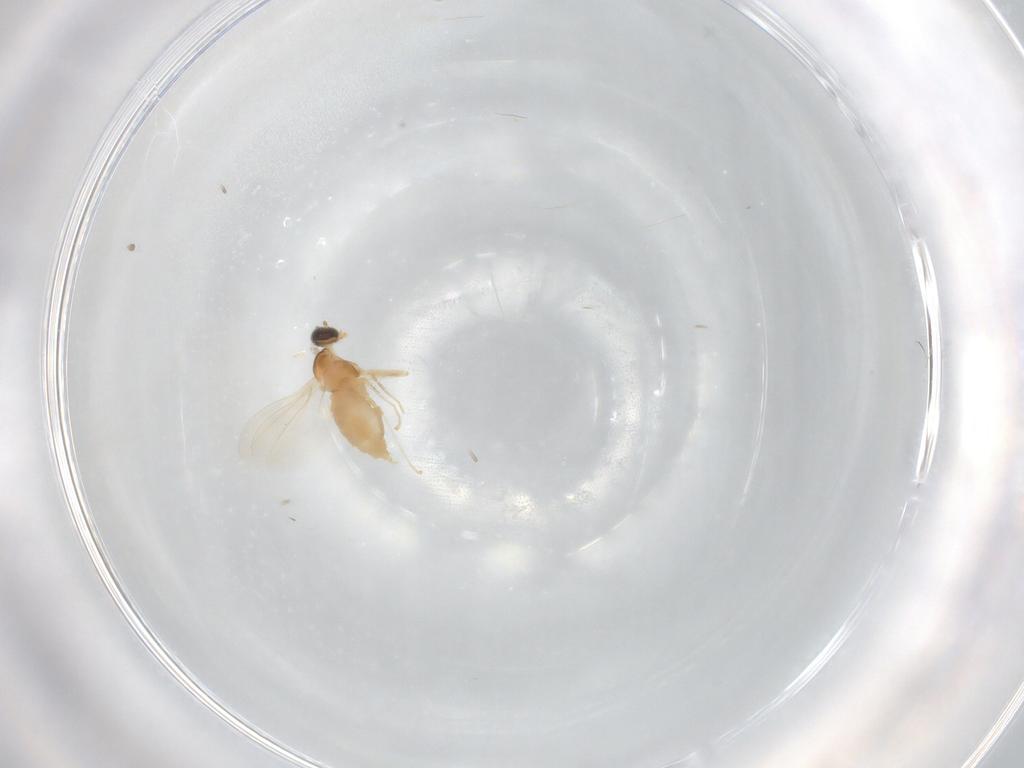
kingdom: Animalia
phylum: Arthropoda
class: Insecta
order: Diptera
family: Cecidomyiidae
